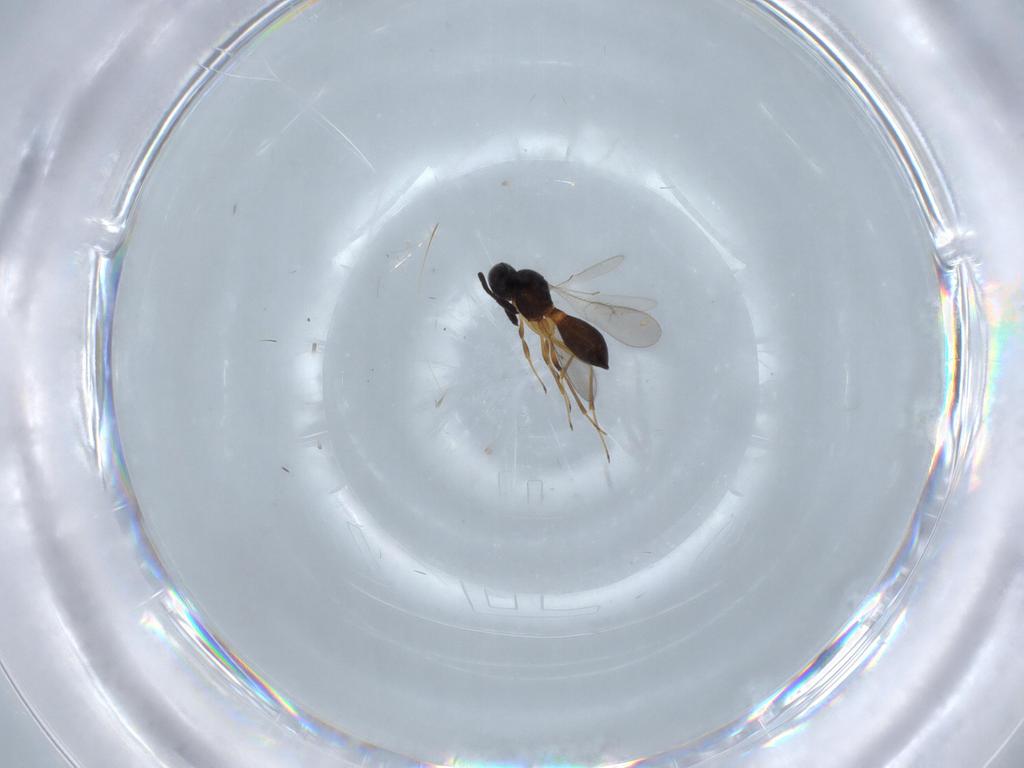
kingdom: Animalia
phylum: Arthropoda
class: Insecta
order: Hymenoptera
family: Scelionidae
